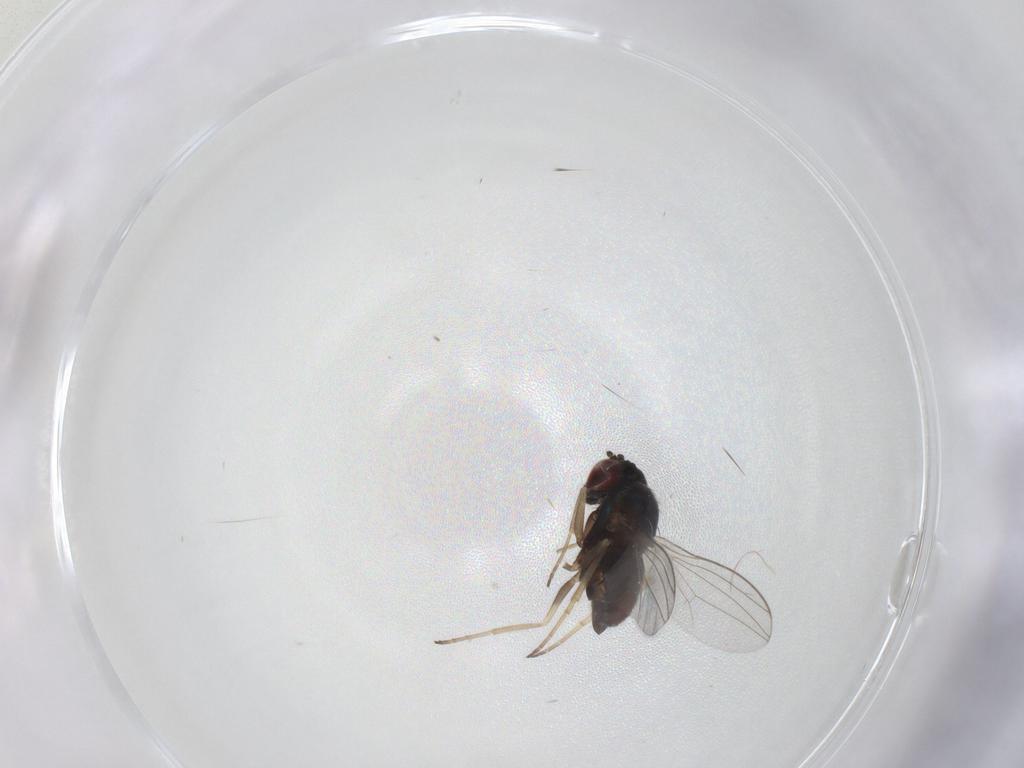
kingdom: Animalia
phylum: Arthropoda
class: Insecta
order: Diptera
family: Dolichopodidae
